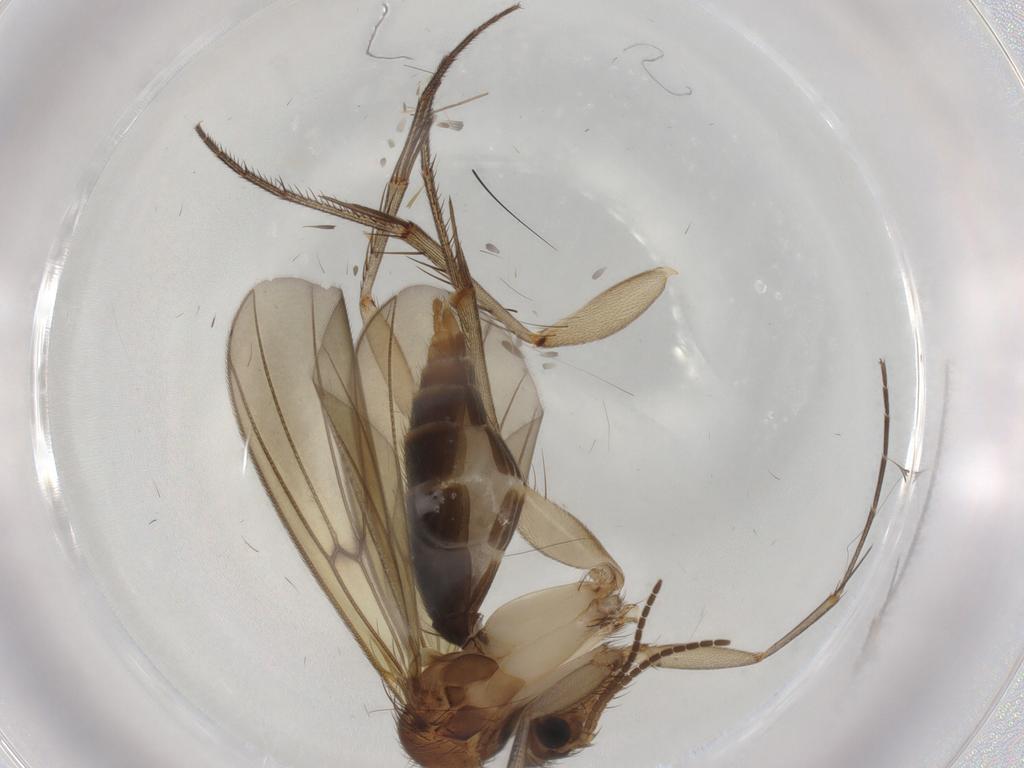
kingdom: Animalia
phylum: Arthropoda
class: Insecta
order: Diptera
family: Mycetophilidae
